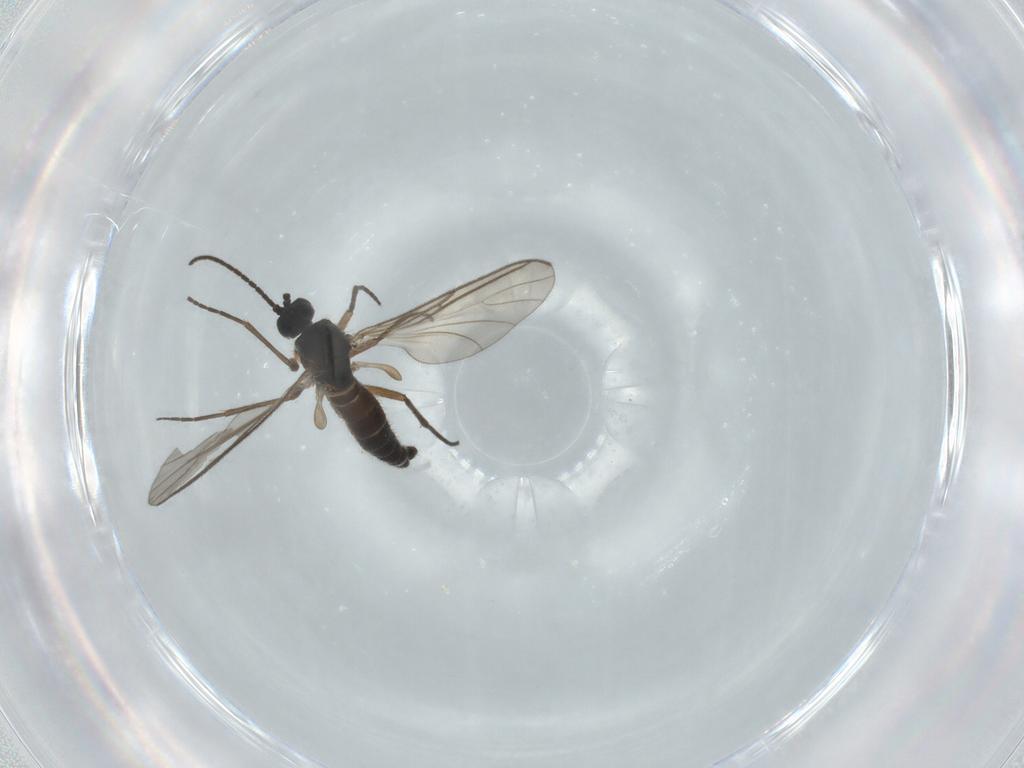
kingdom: Animalia
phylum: Arthropoda
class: Insecta
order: Diptera
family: Sciaridae
